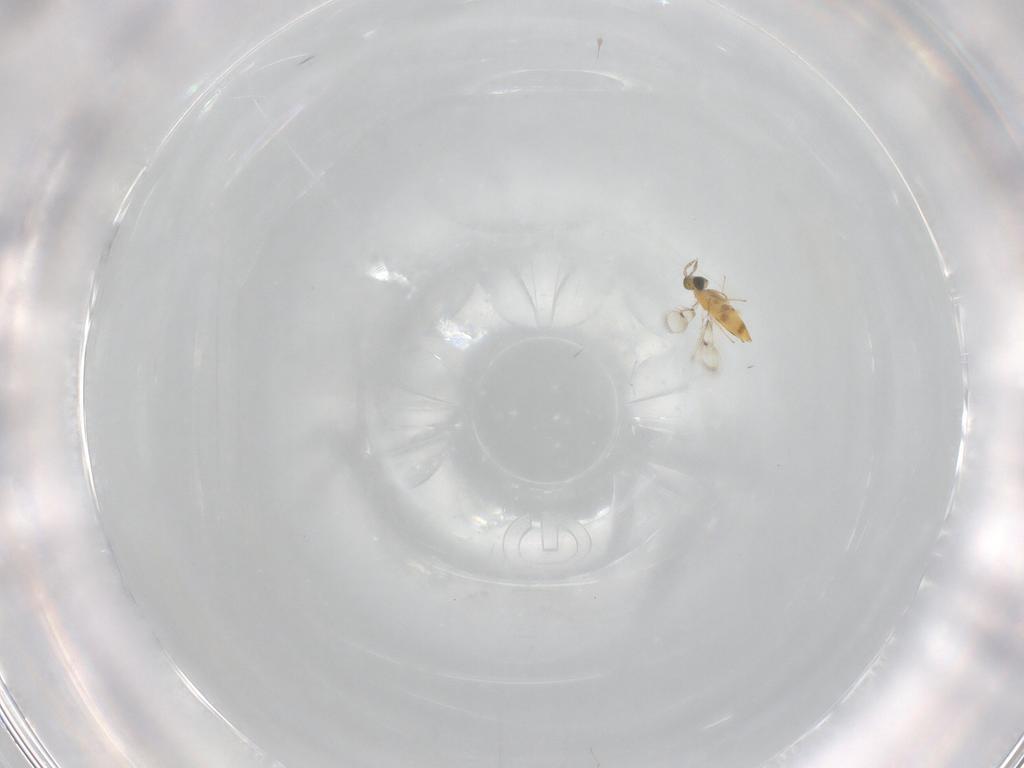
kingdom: Animalia
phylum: Arthropoda
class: Insecta
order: Hymenoptera
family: Trichogrammatidae
